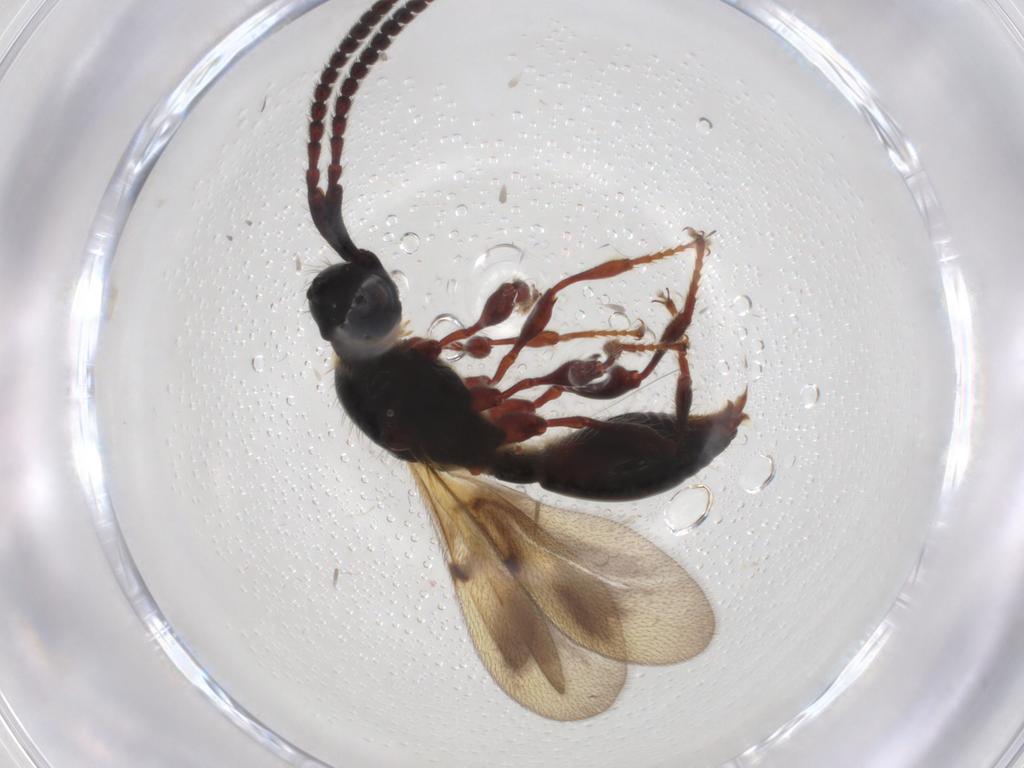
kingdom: Animalia
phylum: Arthropoda
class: Insecta
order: Hymenoptera
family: Diapriidae
